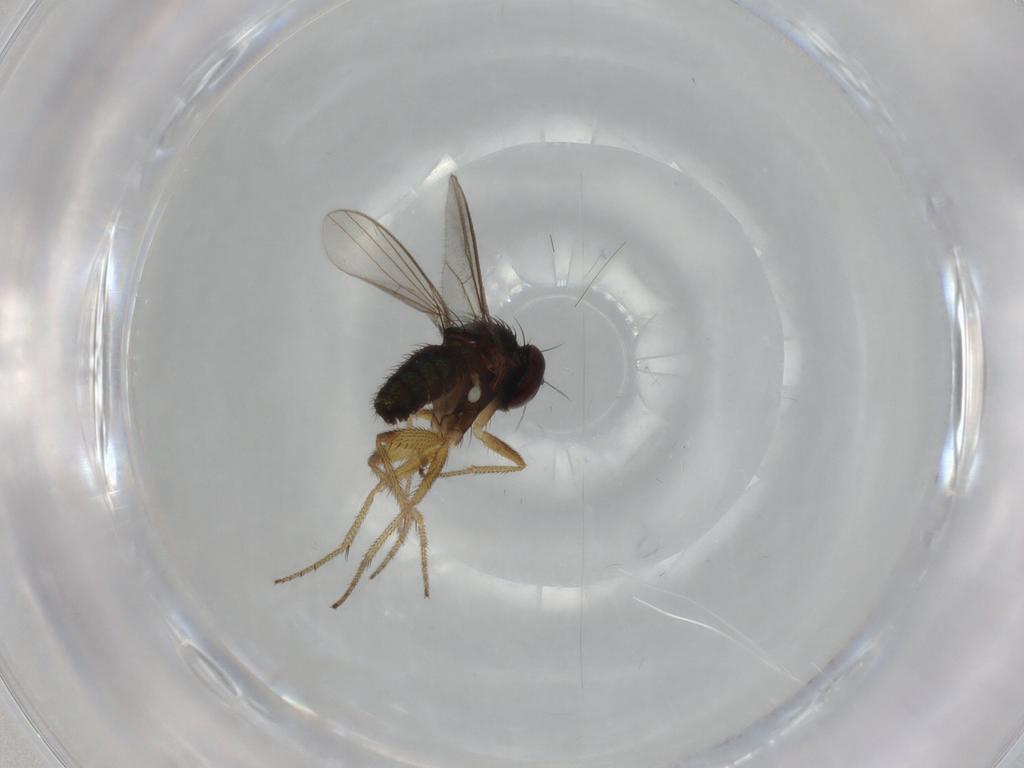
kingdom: Animalia
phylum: Arthropoda
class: Insecta
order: Diptera
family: Dolichopodidae
